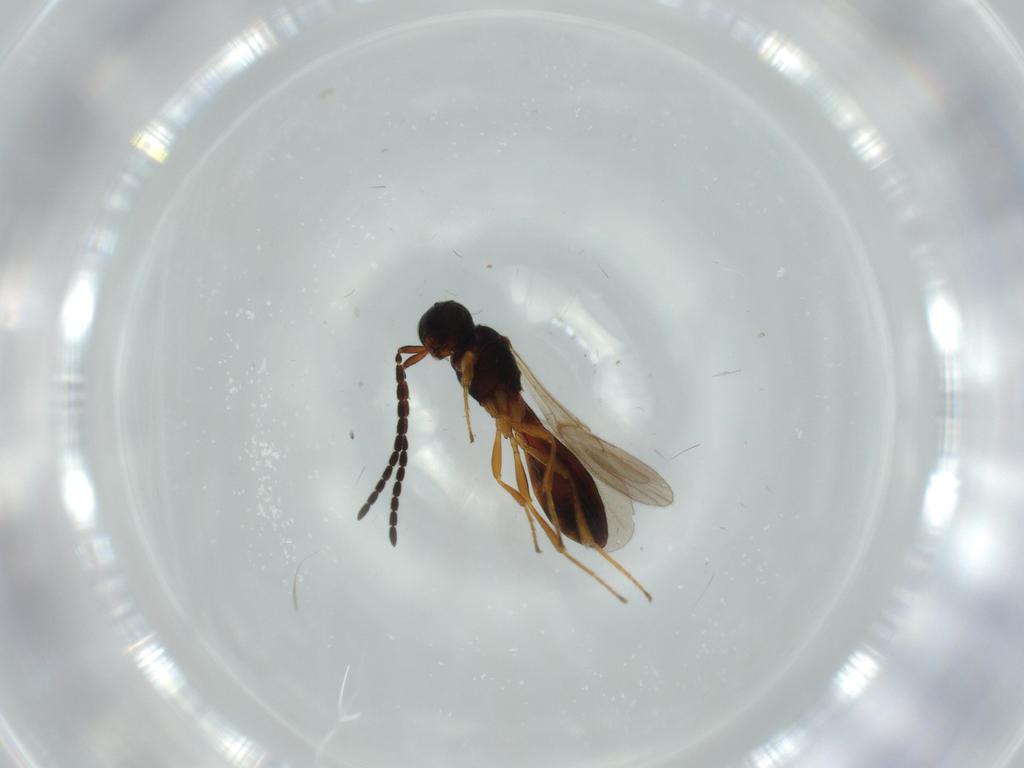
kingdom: Animalia
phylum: Arthropoda
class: Insecta
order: Hymenoptera
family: Scelionidae
